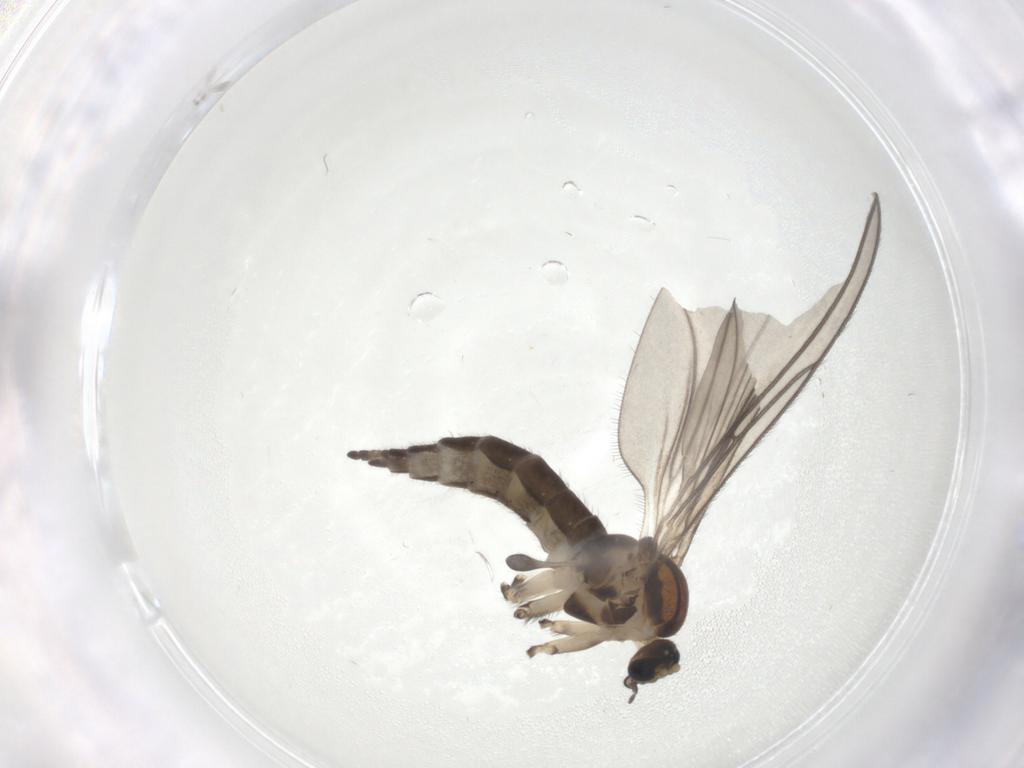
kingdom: Animalia
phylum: Arthropoda
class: Insecta
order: Diptera
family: Sciaridae
